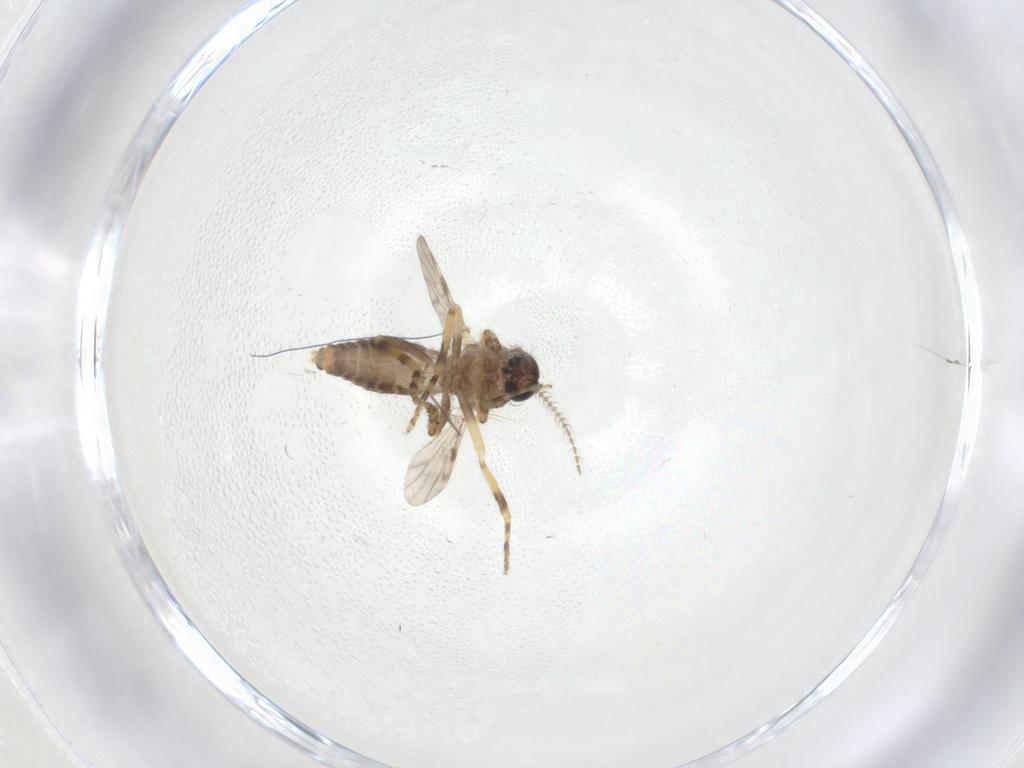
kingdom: Animalia
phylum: Arthropoda
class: Insecta
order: Diptera
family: Ceratopogonidae
